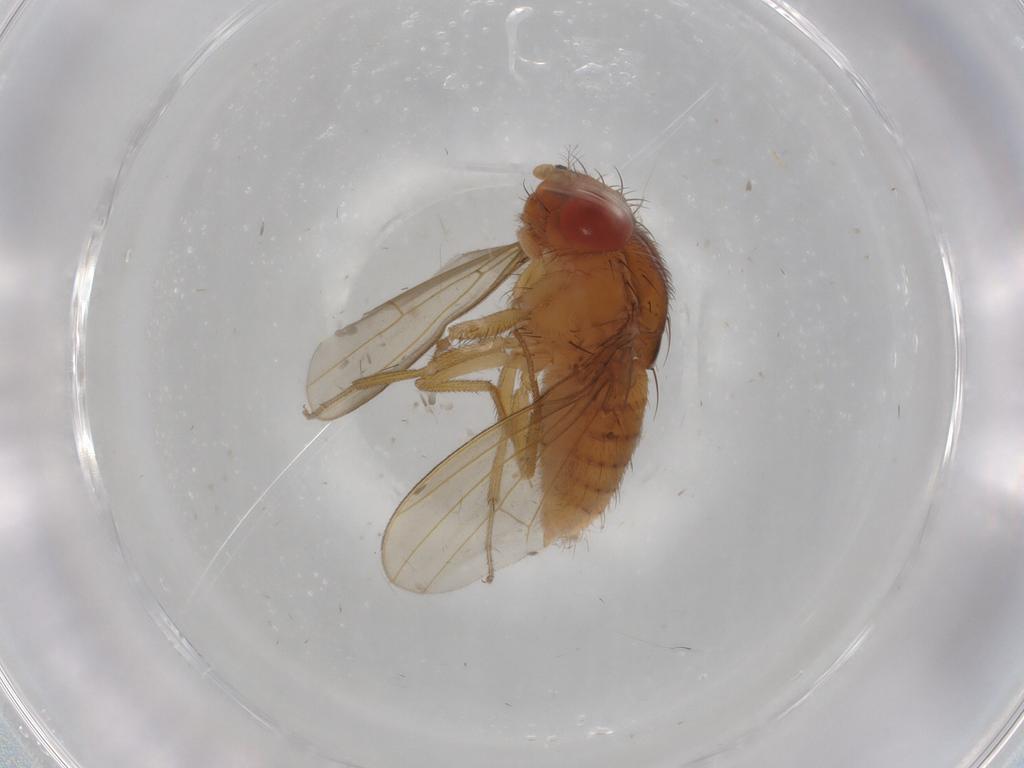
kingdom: Animalia
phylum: Arthropoda
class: Insecta
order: Diptera
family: Drosophilidae
